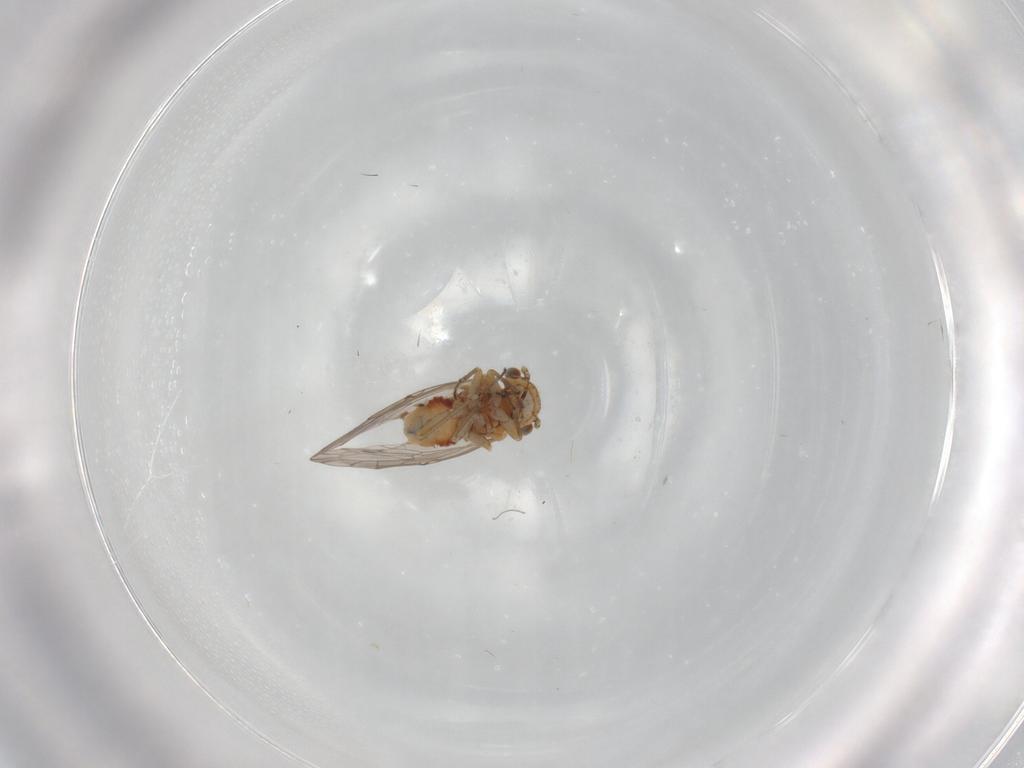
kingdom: Animalia
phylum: Arthropoda
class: Insecta
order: Psocodea
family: Ectopsocidae
